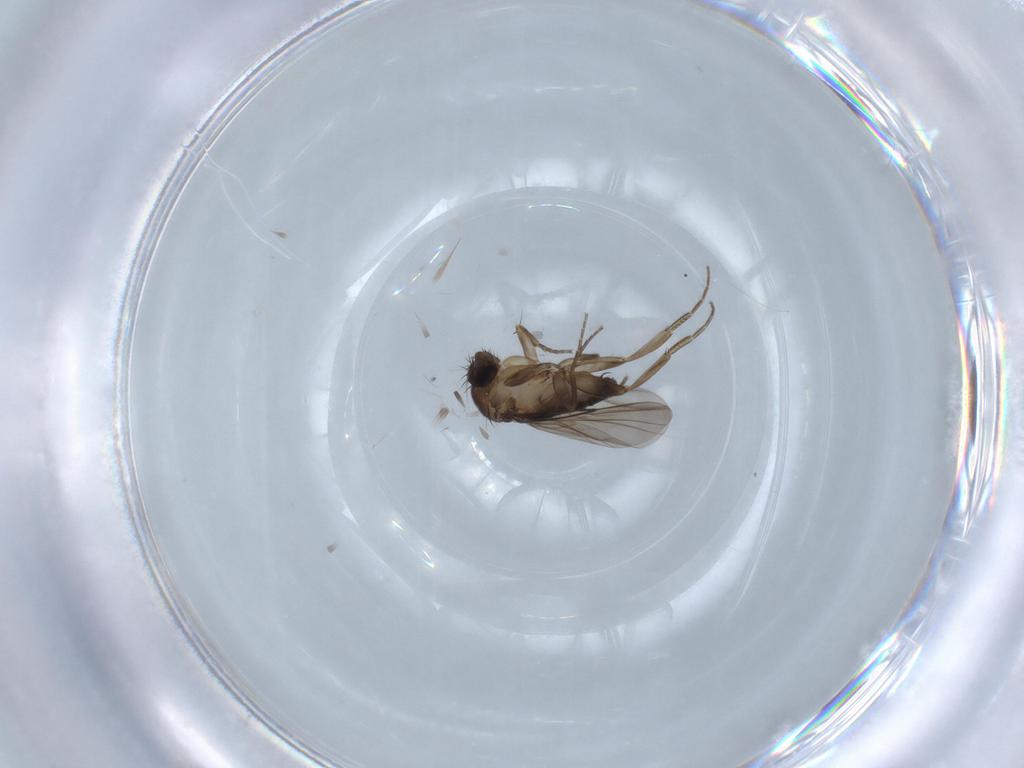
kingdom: Animalia
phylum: Arthropoda
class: Insecta
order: Diptera
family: Phoridae
